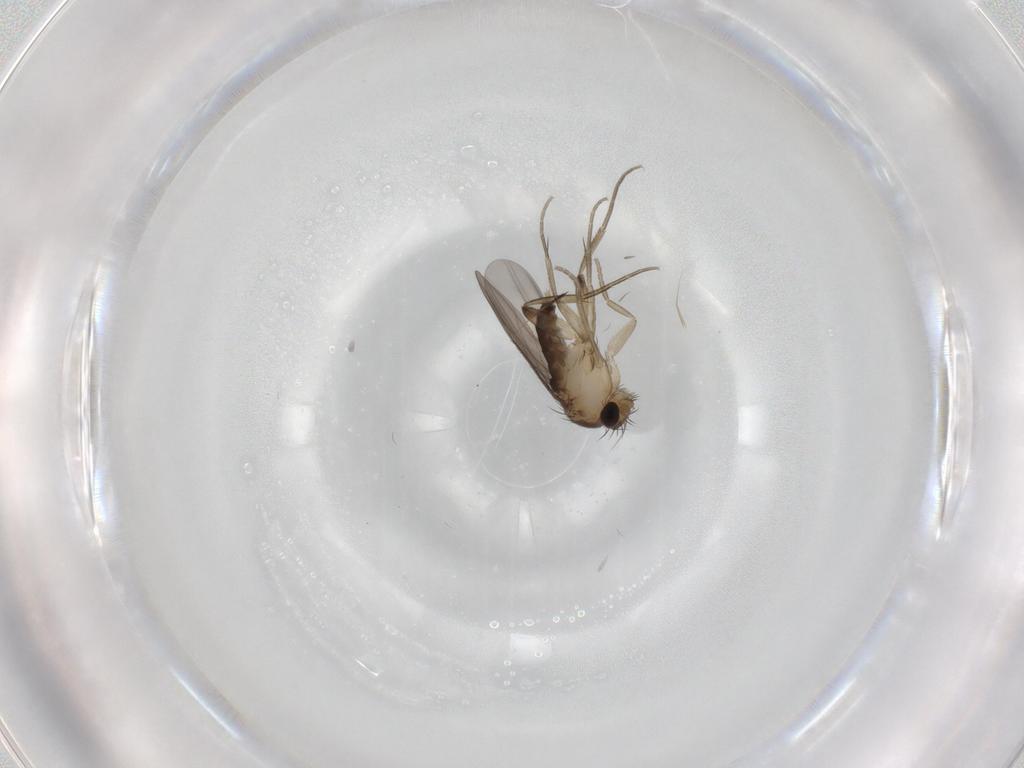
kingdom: Animalia
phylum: Arthropoda
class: Insecta
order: Diptera
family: Phoridae
